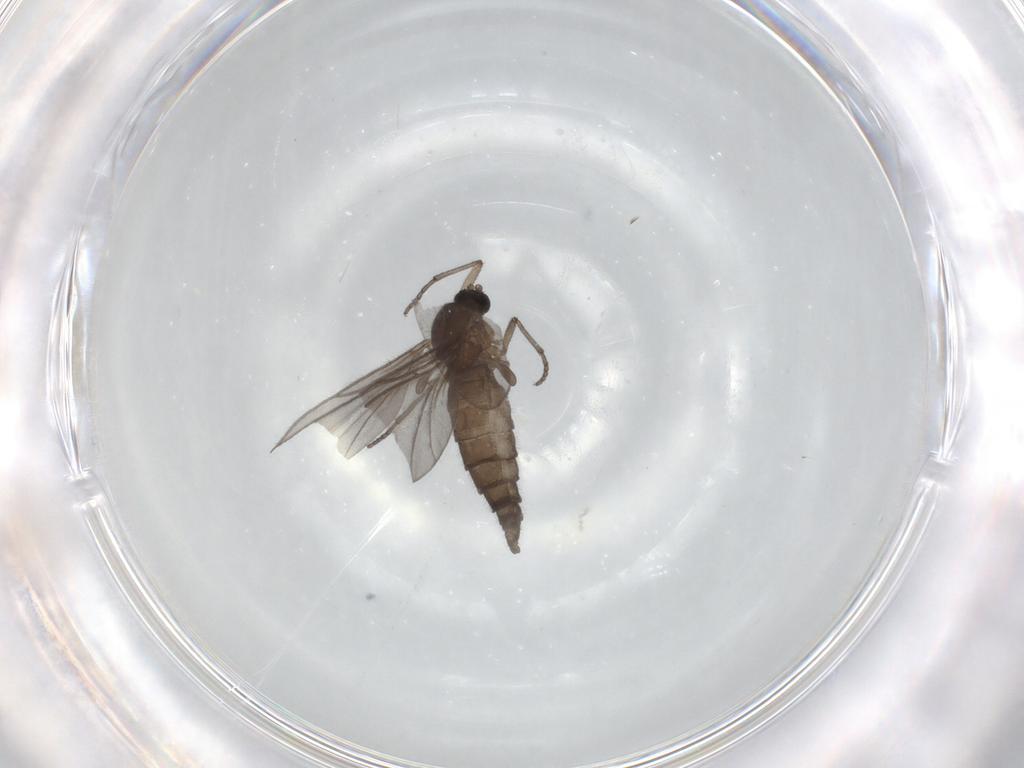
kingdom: Animalia
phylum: Arthropoda
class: Insecta
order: Diptera
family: Sciaridae
